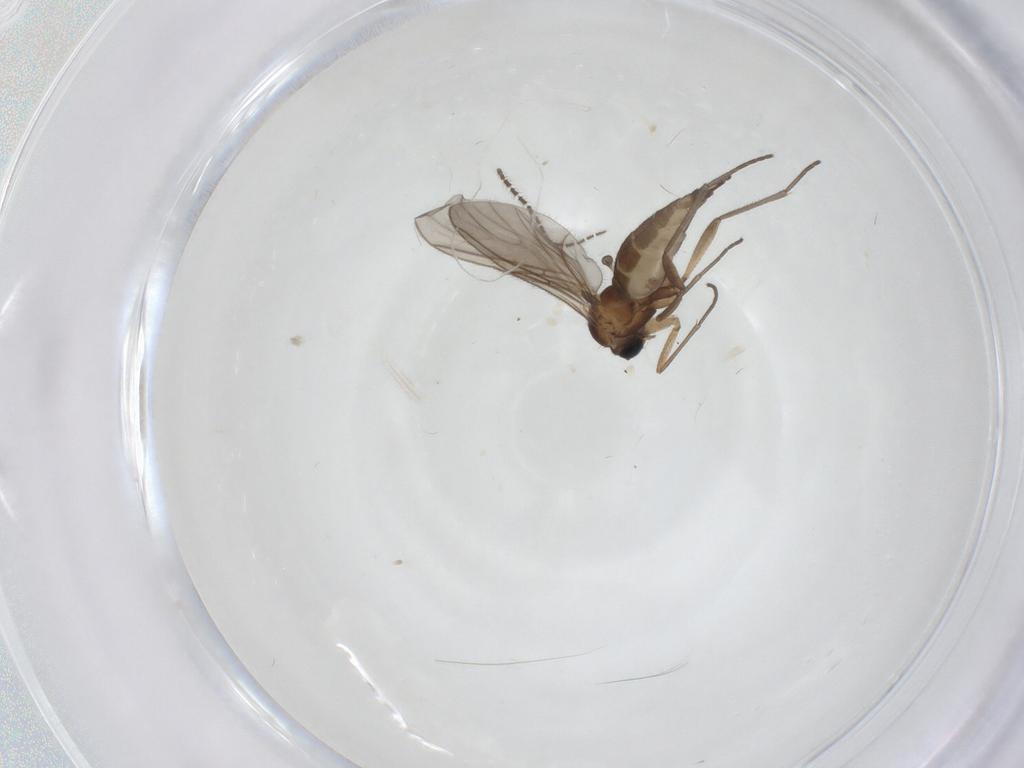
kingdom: Animalia
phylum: Arthropoda
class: Insecta
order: Diptera
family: Sciaridae
